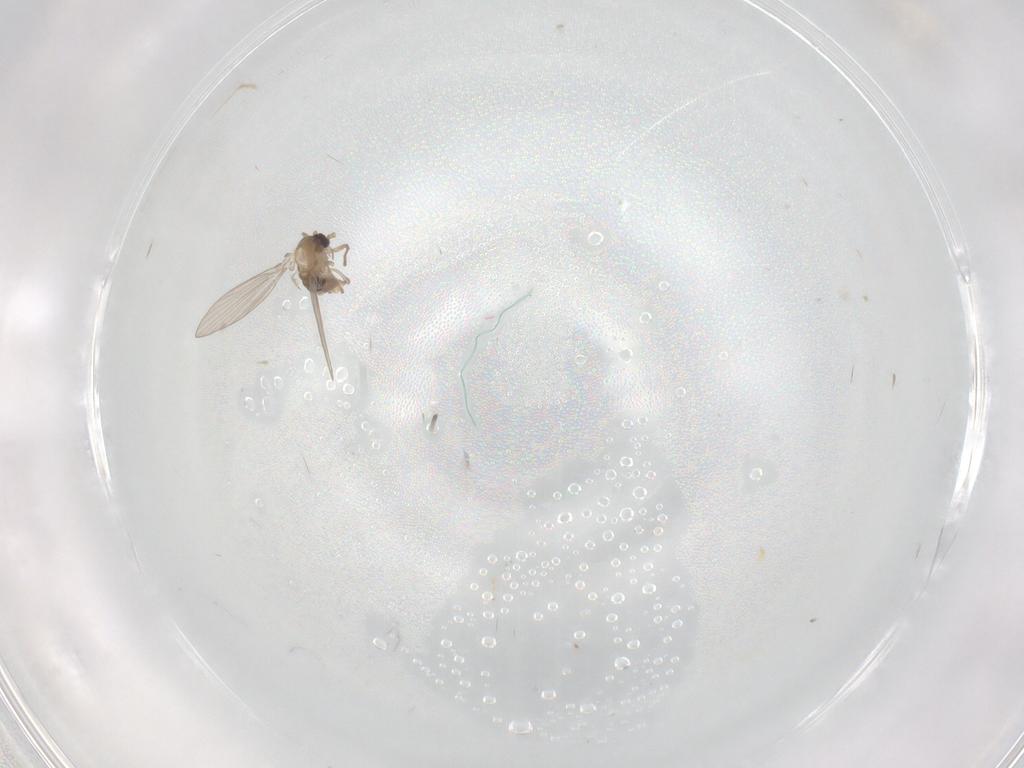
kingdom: Animalia
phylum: Arthropoda
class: Insecta
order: Diptera
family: Psychodidae
